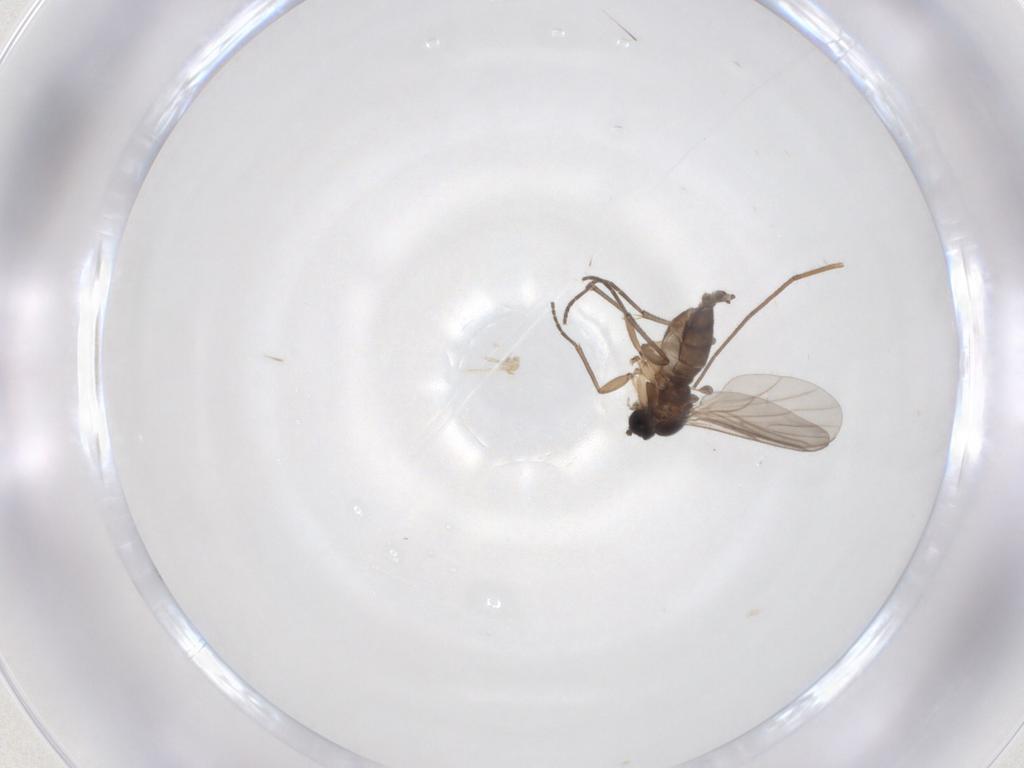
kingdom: Animalia
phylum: Arthropoda
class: Insecta
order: Diptera
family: Sciaridae
